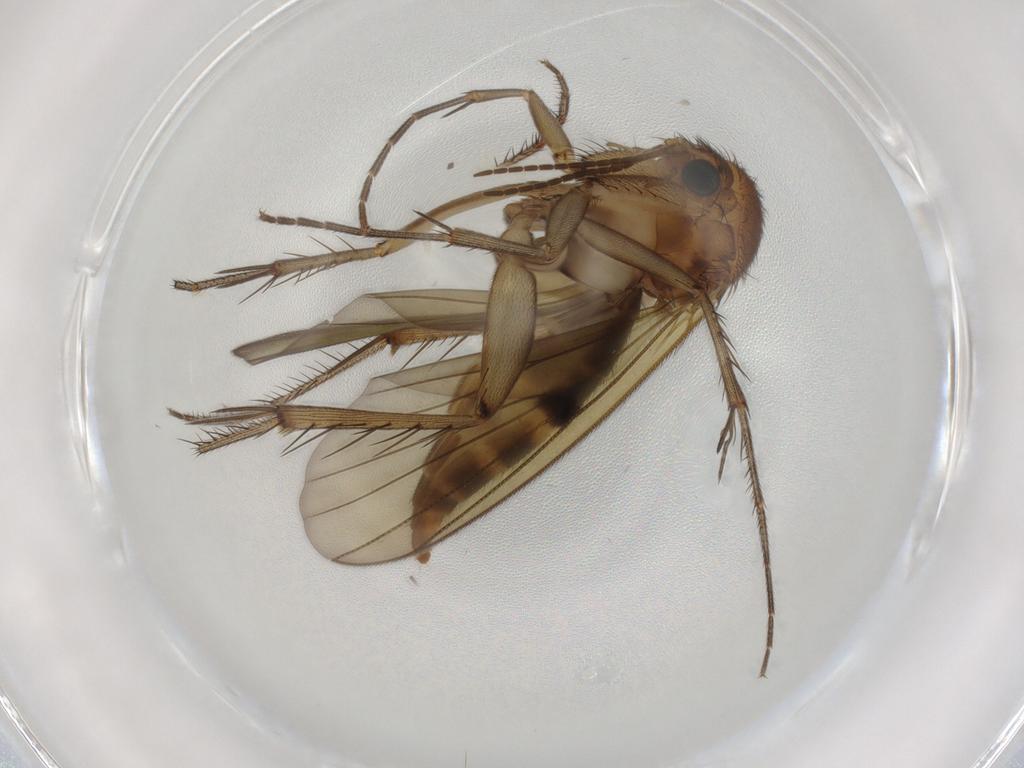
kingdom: Animalia
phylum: Arthropoda
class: Insecta
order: Diptera
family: Mycetophilidae
